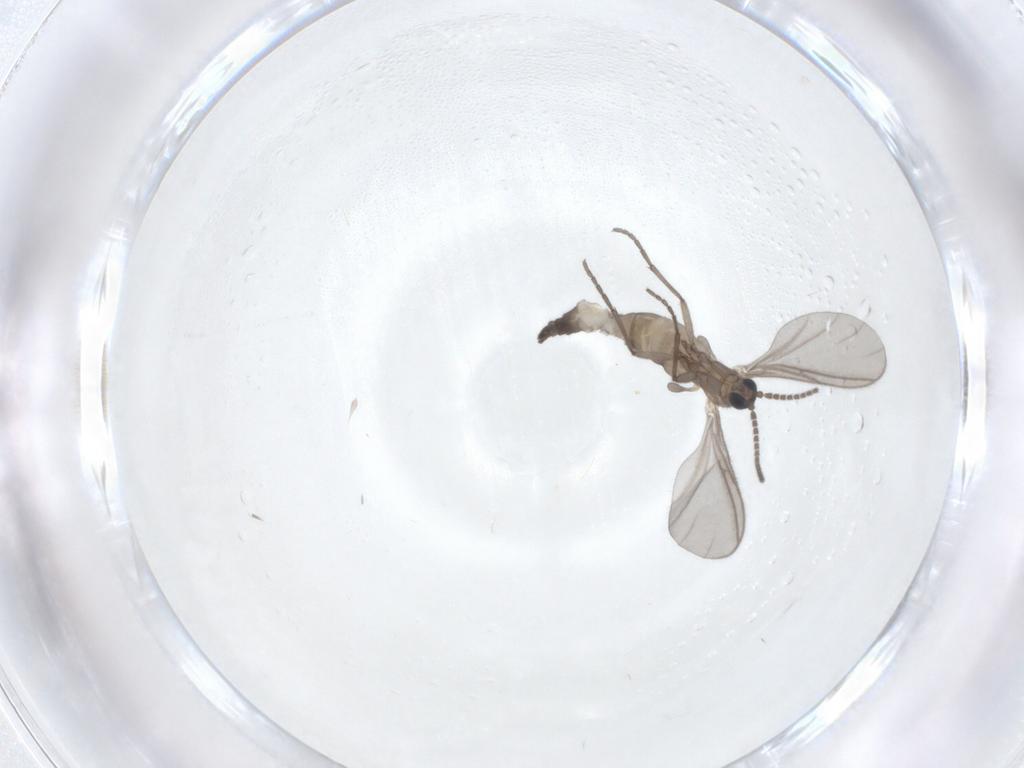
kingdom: Animalia
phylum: Arthropoda
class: Insecta
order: Diptera
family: Sciaridae
